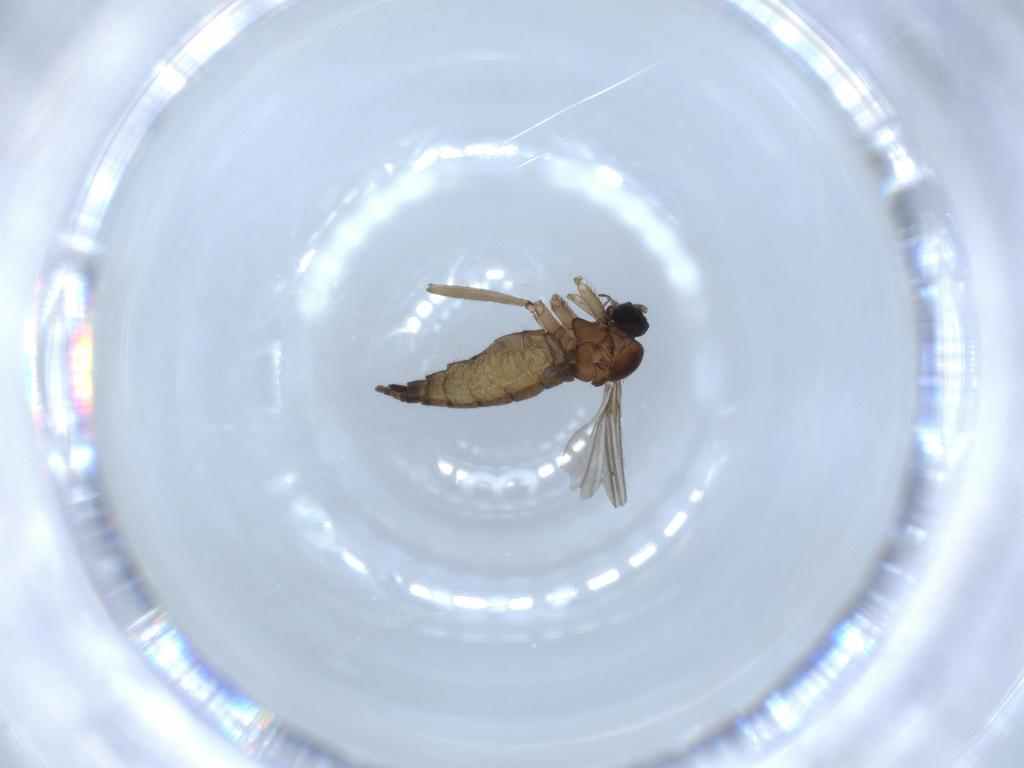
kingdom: Animalia
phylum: Arthropoda
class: Insecta
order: Diptera
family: Sciaridae
